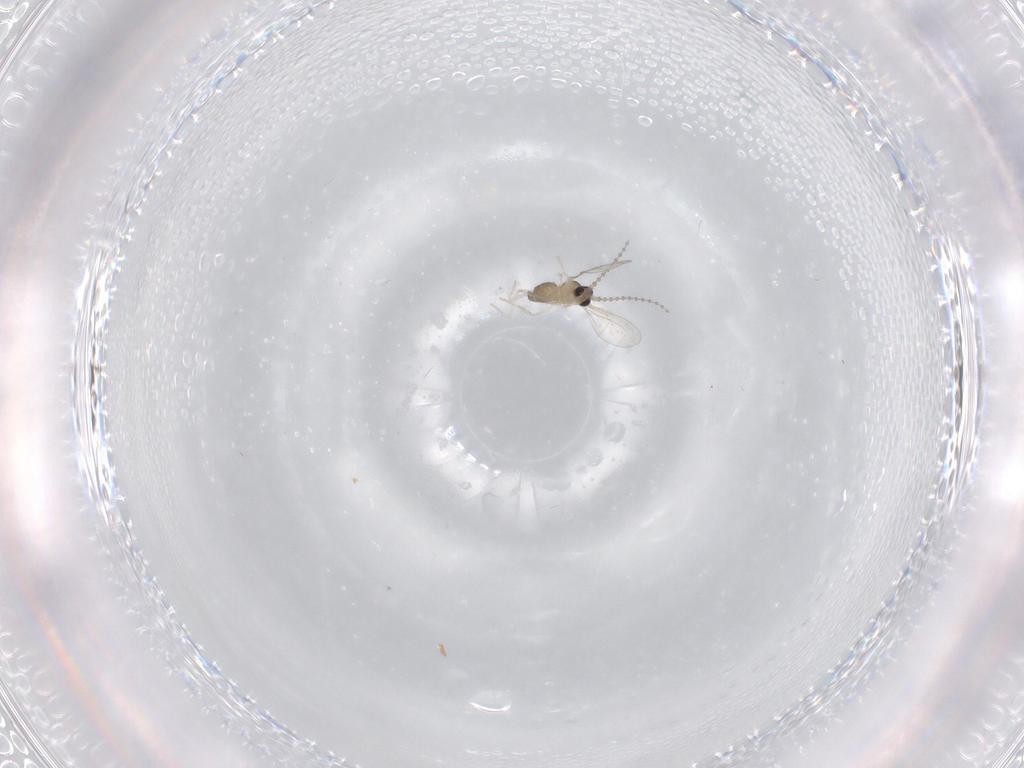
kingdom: Animalia
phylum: Arthropoda
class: Insecta
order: Diptera
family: Cecidomyiidae
